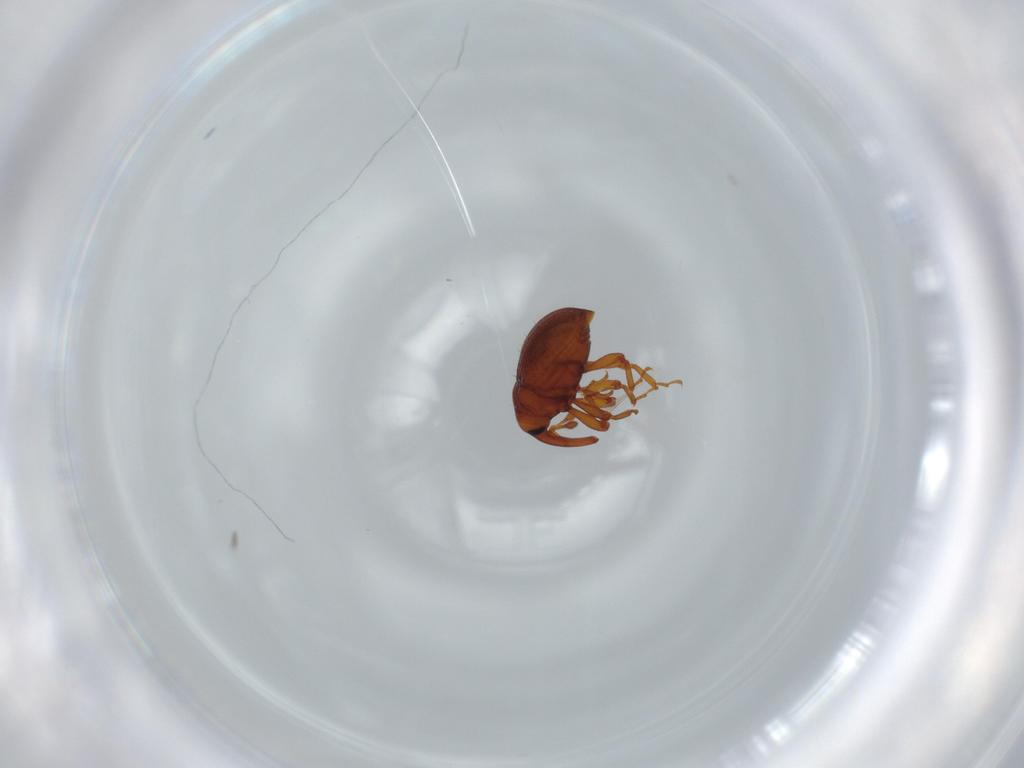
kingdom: Animalia
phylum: Arthropoda
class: Insecta
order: Coleoptera
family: Curculionidae
